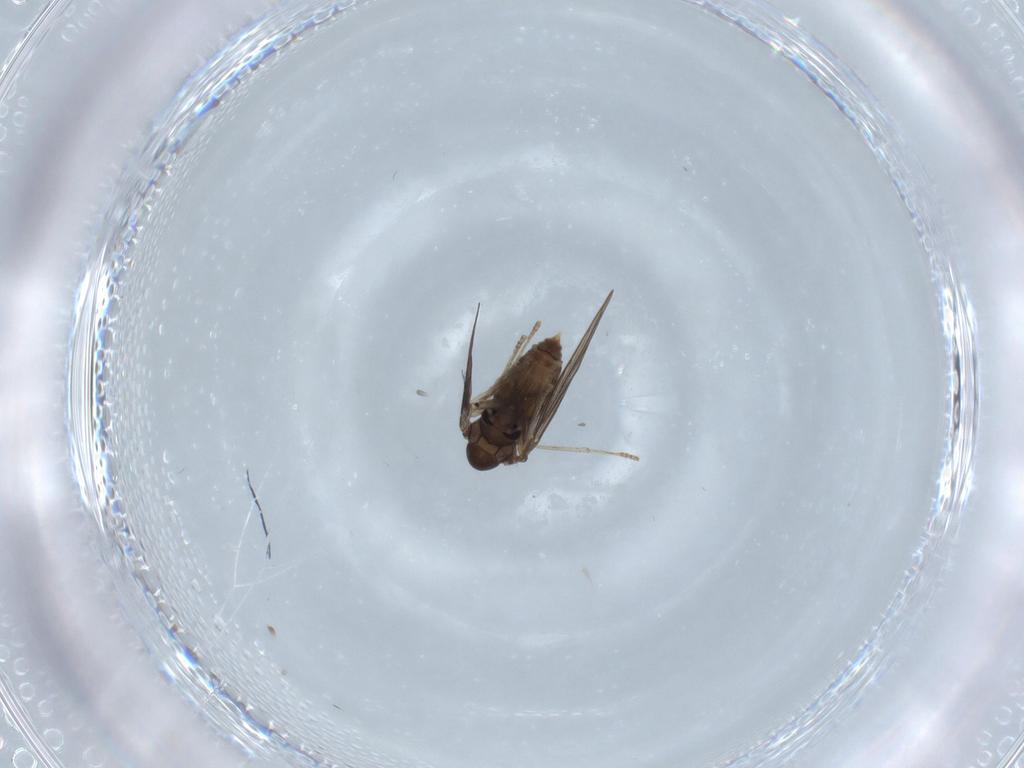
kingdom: Animalia
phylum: Arthropoda
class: Insecta
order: Diptera
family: Psychodidae
